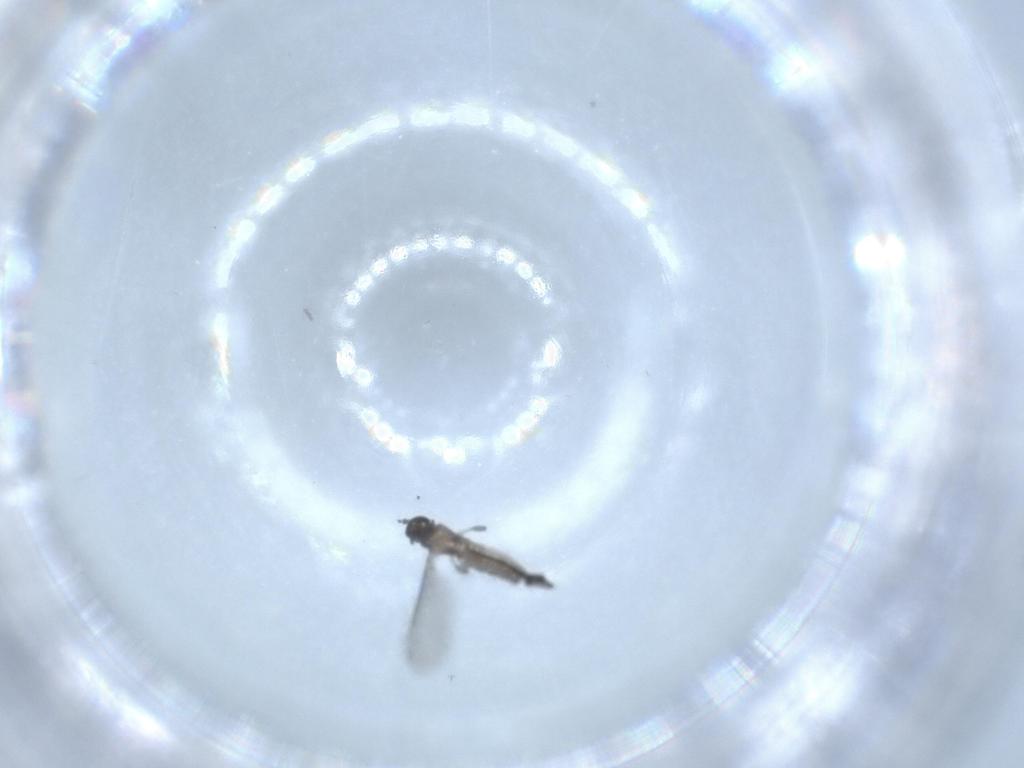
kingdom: Animalia
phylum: Arthropoda
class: Insecta
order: Diptera
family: Sciaridae
